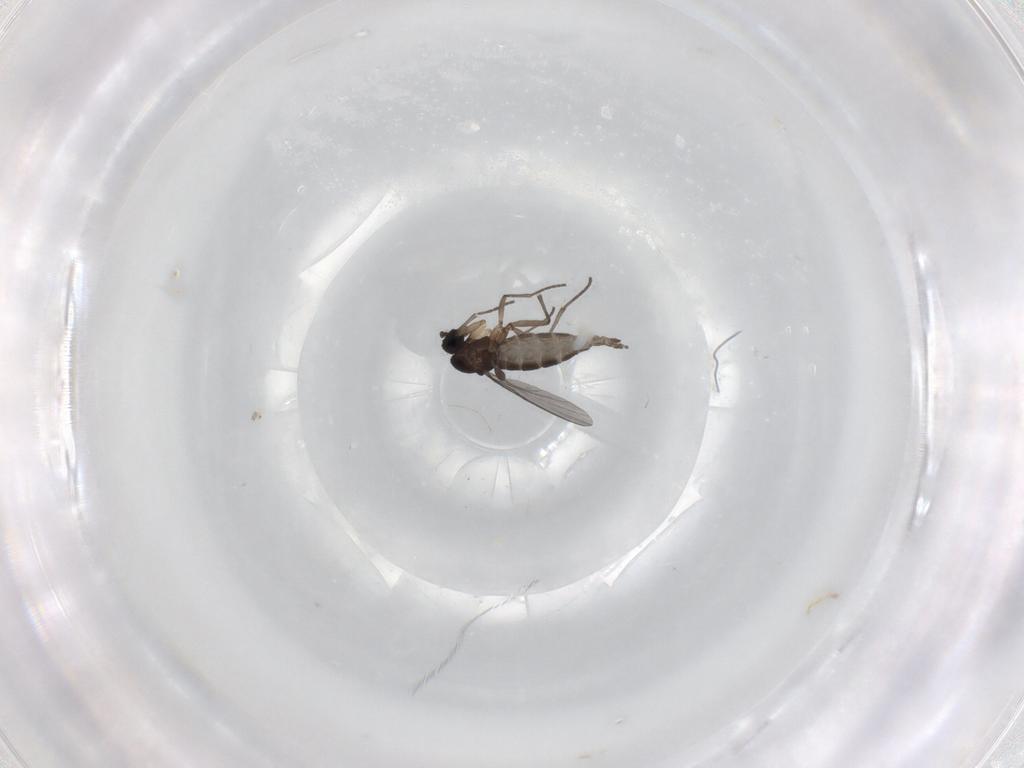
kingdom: Animalia
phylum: Arthropoda
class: Insecta
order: Diptera
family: Sciaridae
